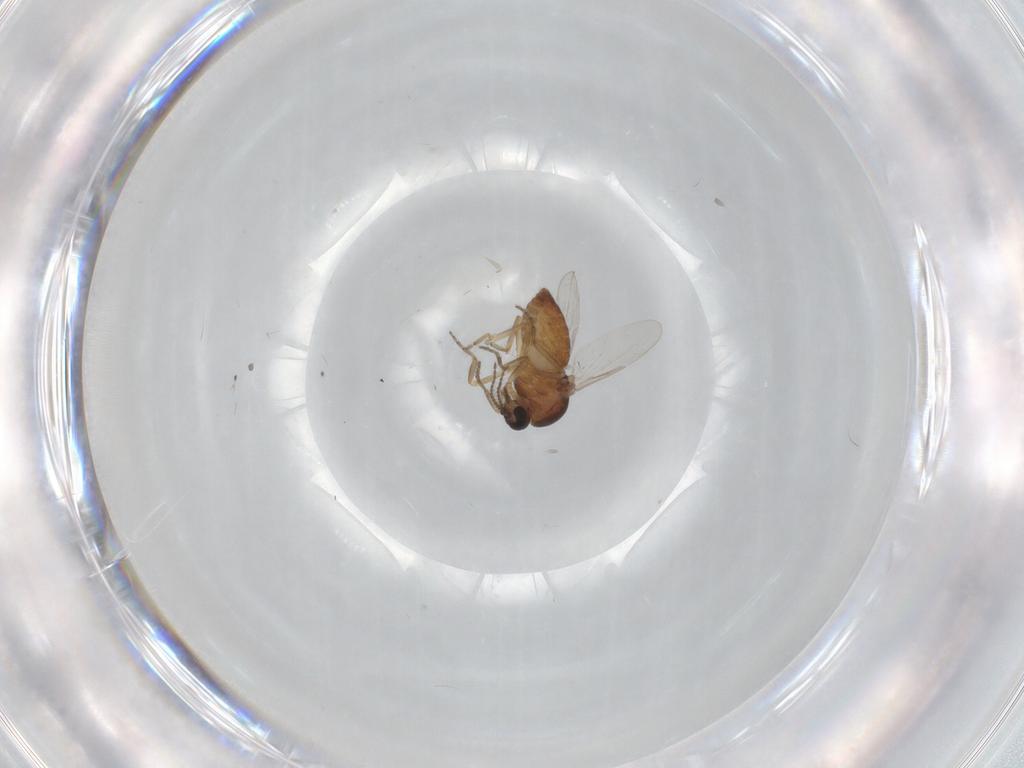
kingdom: Animalia
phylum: Arthropoda
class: Insecta
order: Diptera
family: Ceratopogonidae
